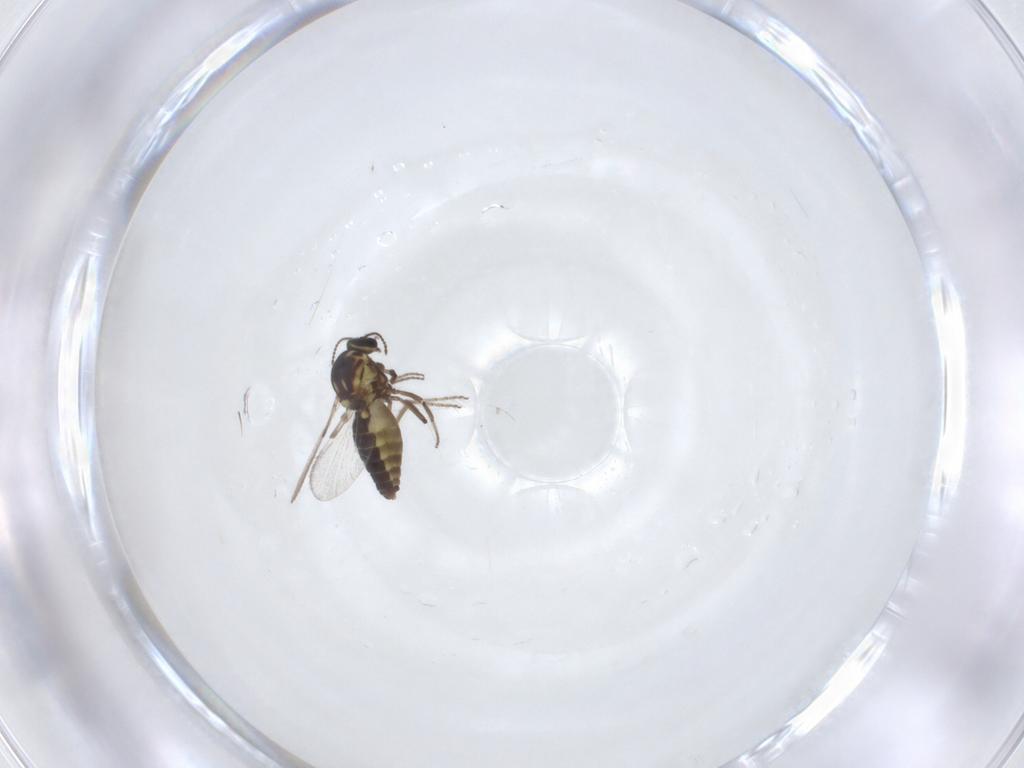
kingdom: Animalia
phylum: Arthropoda
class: Insecta
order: Diptera
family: Ceratopogonidae
